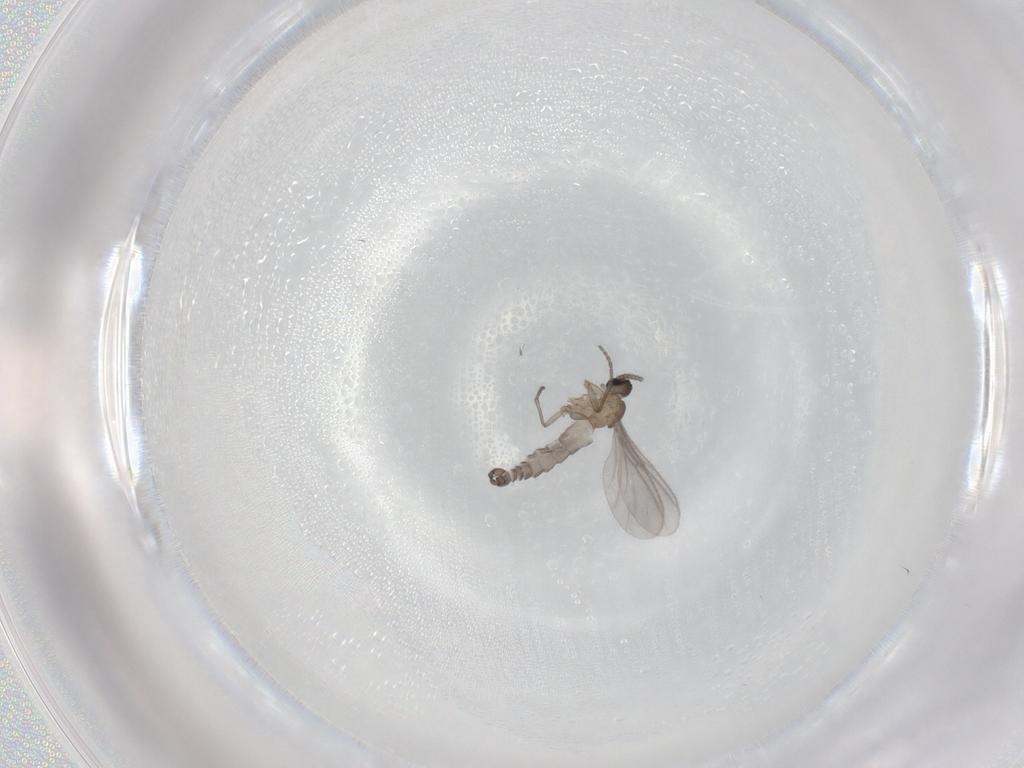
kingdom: Animalia
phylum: Arthropoda
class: Insecta
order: Diptera
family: Sciaridae
